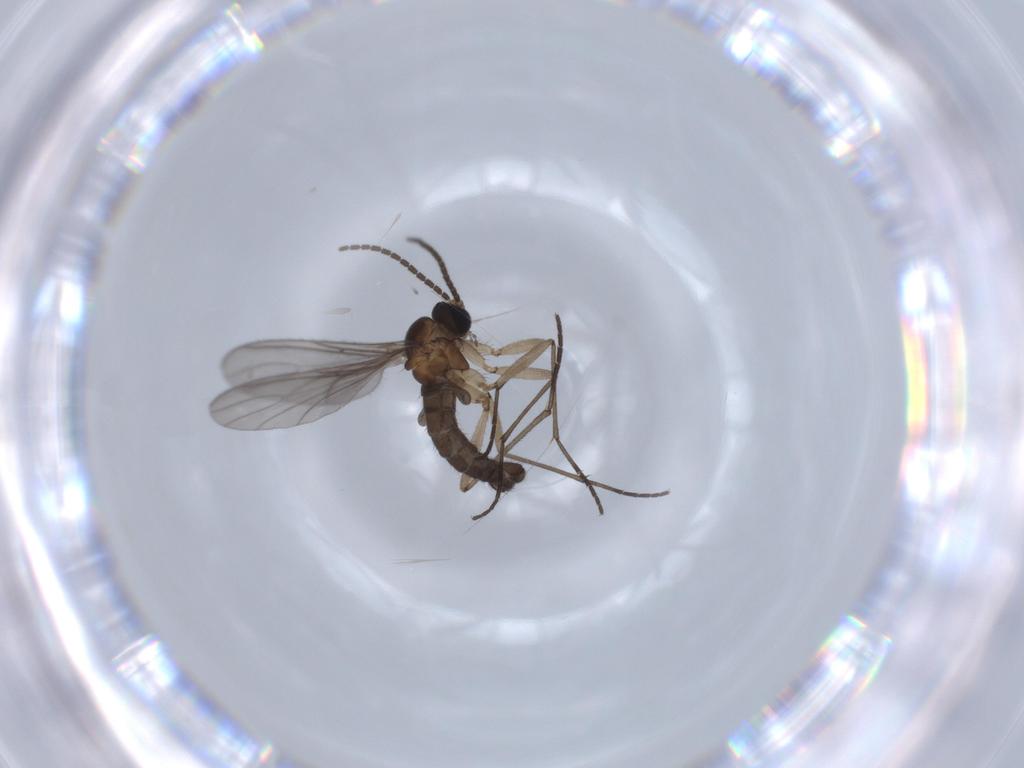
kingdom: Animalia
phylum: Arthropoda
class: Insecta
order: Diptera
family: Sciaridae
